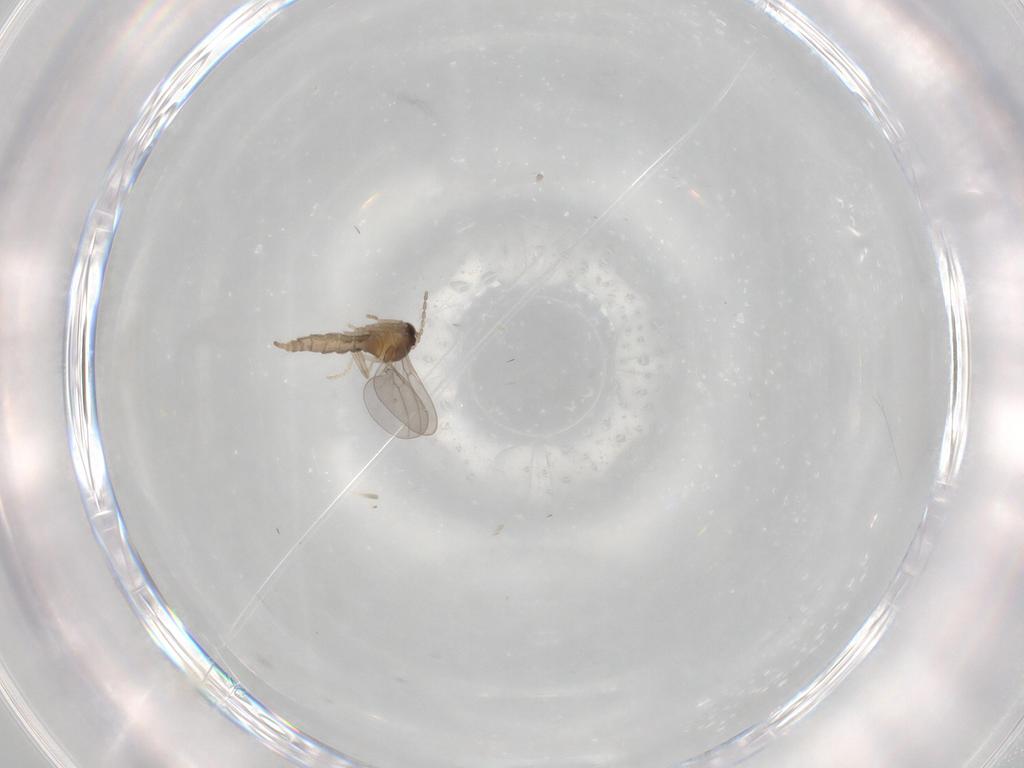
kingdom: Animalia
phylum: Arthropoda
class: Insecta
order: Diptera
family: Cecidomyiidae
